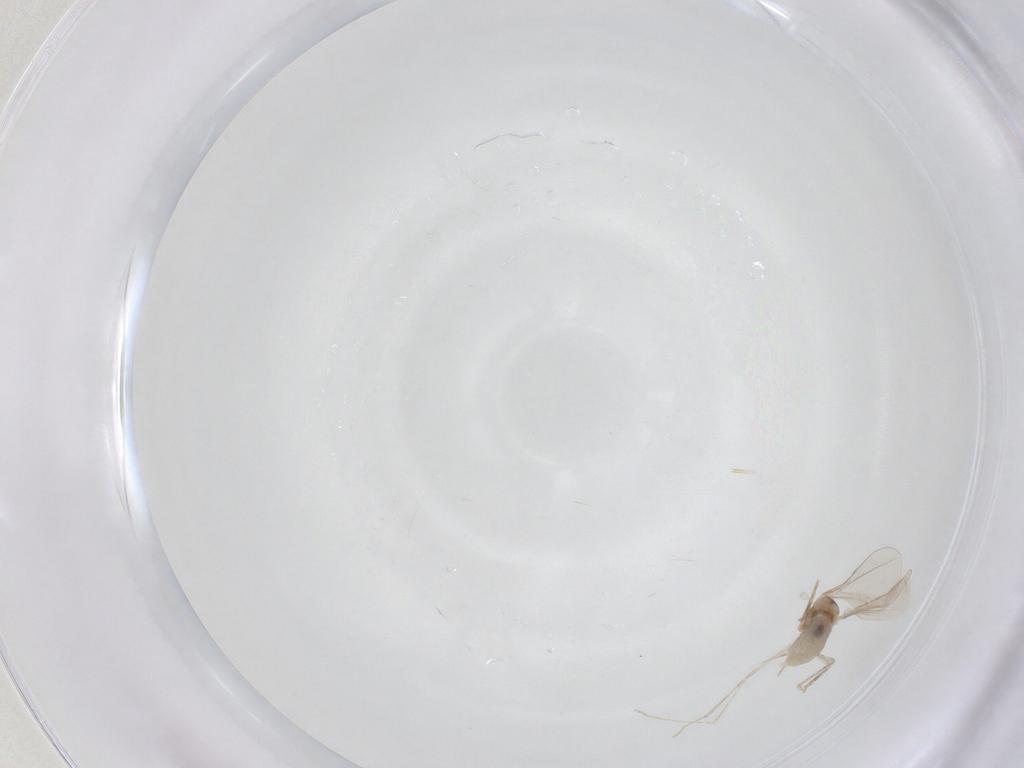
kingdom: Animalia
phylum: Arthropoda
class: Insecta
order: Diptera
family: Cecidomyiidae
